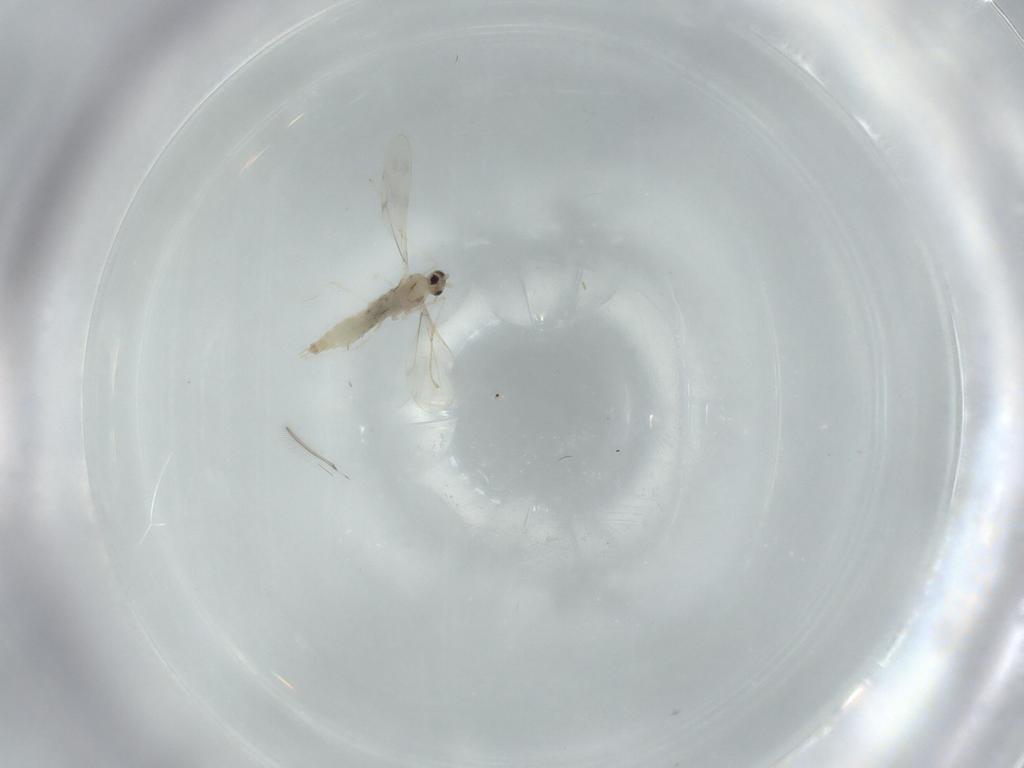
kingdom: Animalia
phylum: Arthropoda
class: Insecta
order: Diptera
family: Cecidomyiidae
